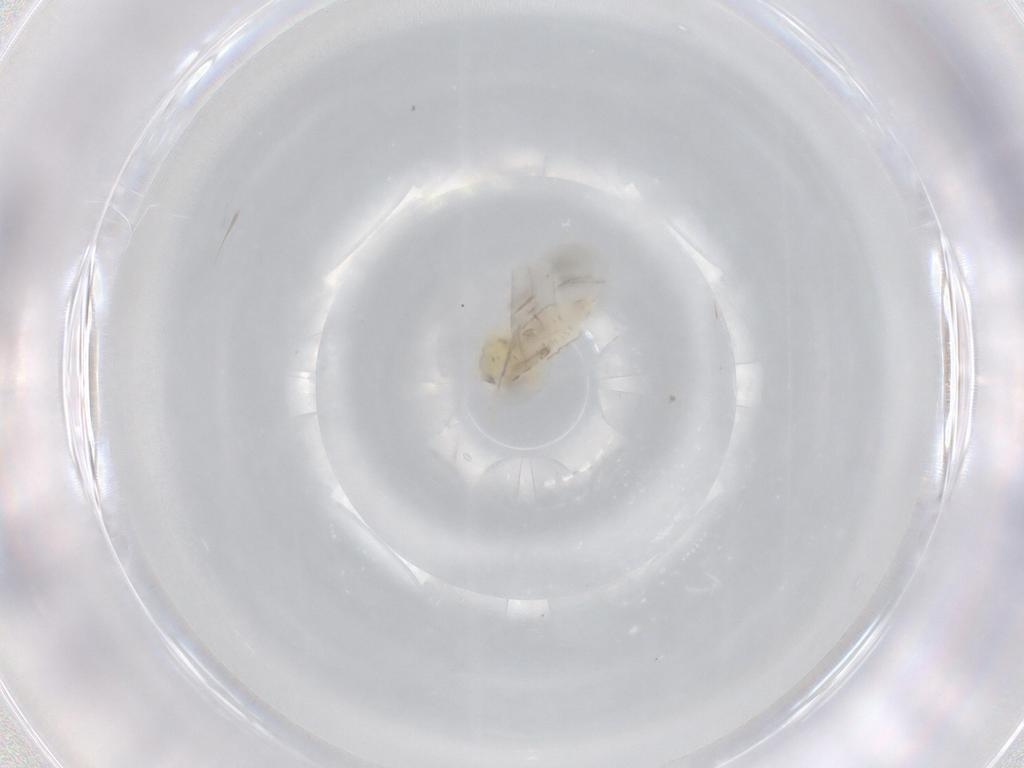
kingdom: Animalia
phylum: Arthropoda
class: Insecta
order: Hemiptera
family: Aleyrodidae
